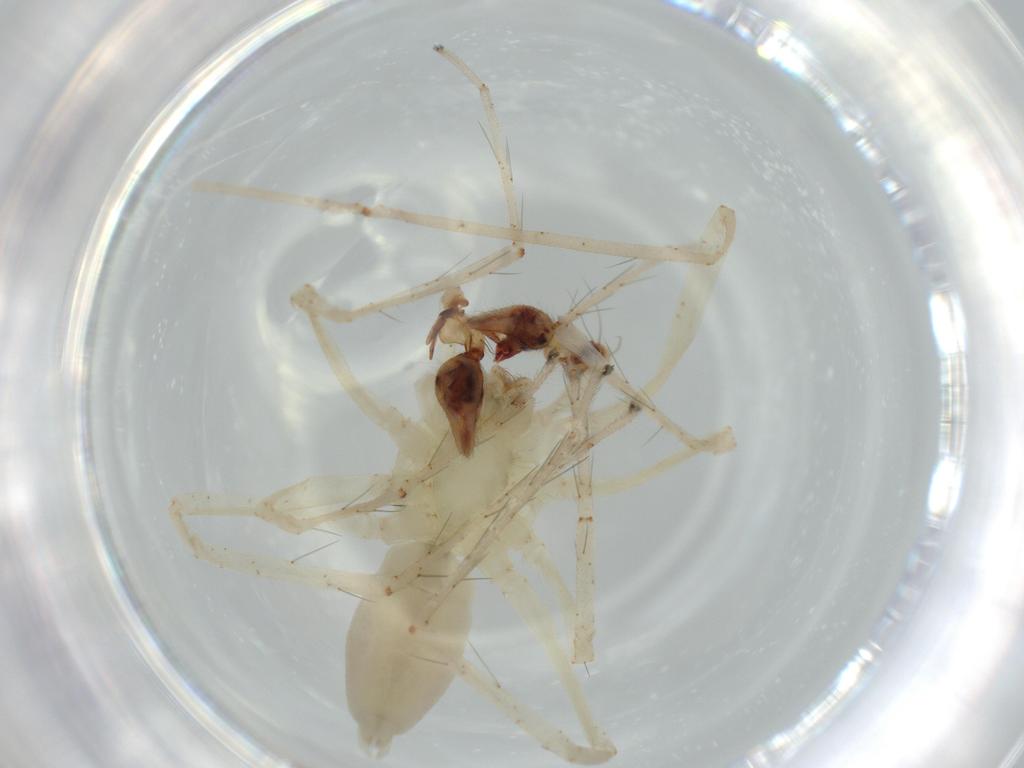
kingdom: Animalia
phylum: Arthropoda
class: Arachnida
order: Araneae
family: Anyphaenidae
